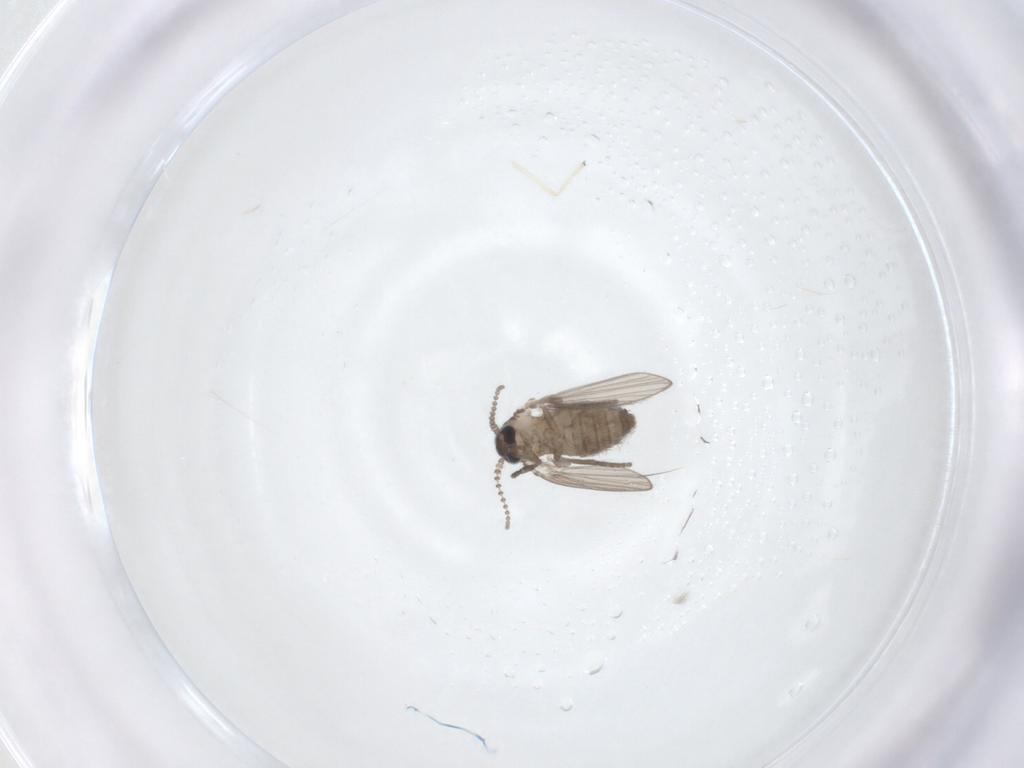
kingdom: Animalia
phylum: Arthropoda
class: Insecta
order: Diptera
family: Psychodidae
